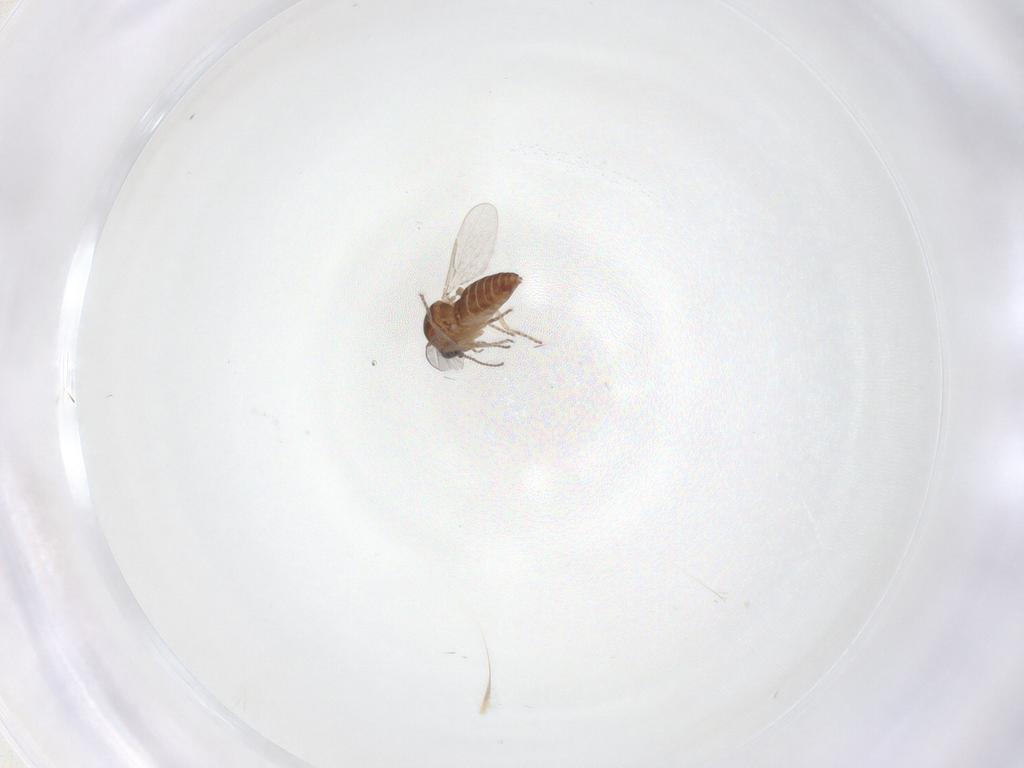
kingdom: Animalia
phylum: Arthropoda
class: Insecta
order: Diptera
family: Ceratopogonidae
